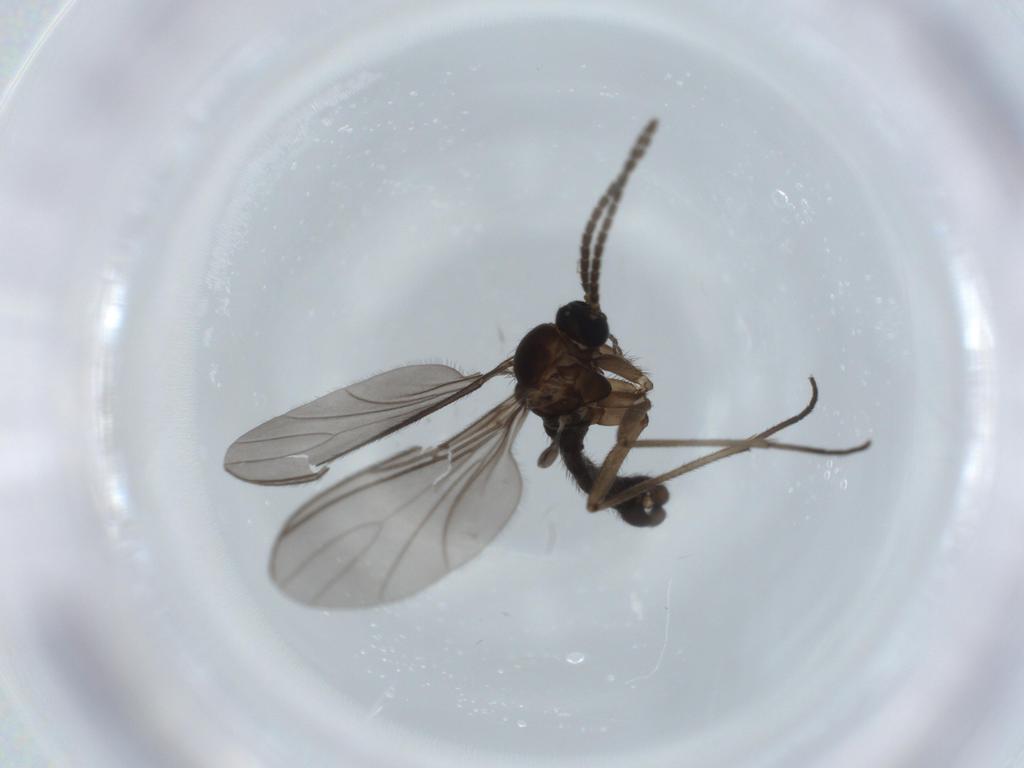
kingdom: Animalia
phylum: Arthropoda
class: Insecta
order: Diptera
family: Sciaridae
